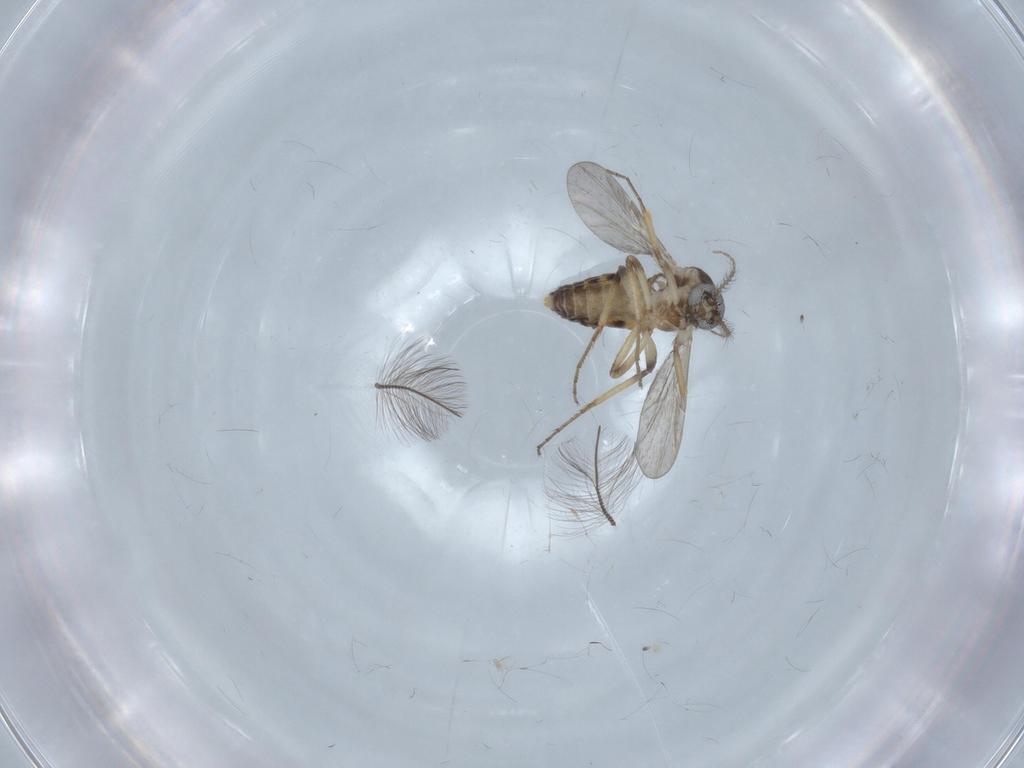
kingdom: Animalia
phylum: Arthropoda
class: Insecta
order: Diptera
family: Ceratopogonidae
